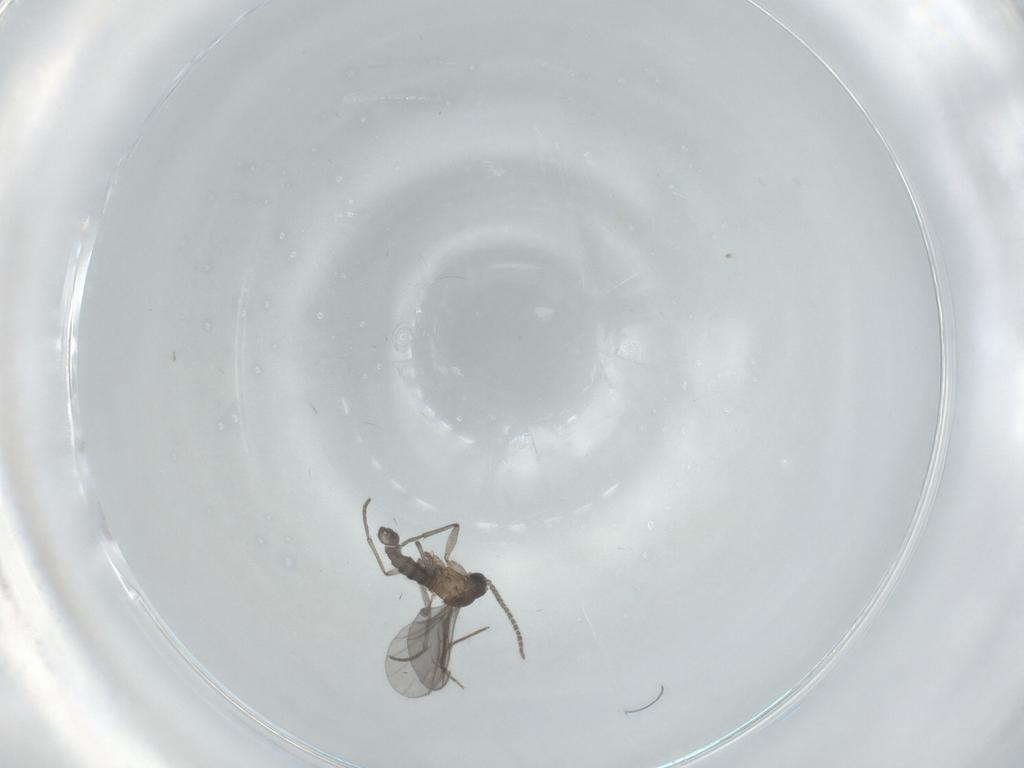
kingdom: Animalia
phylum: Arthropoda
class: Insecta
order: Diptera
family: Sciaridae
